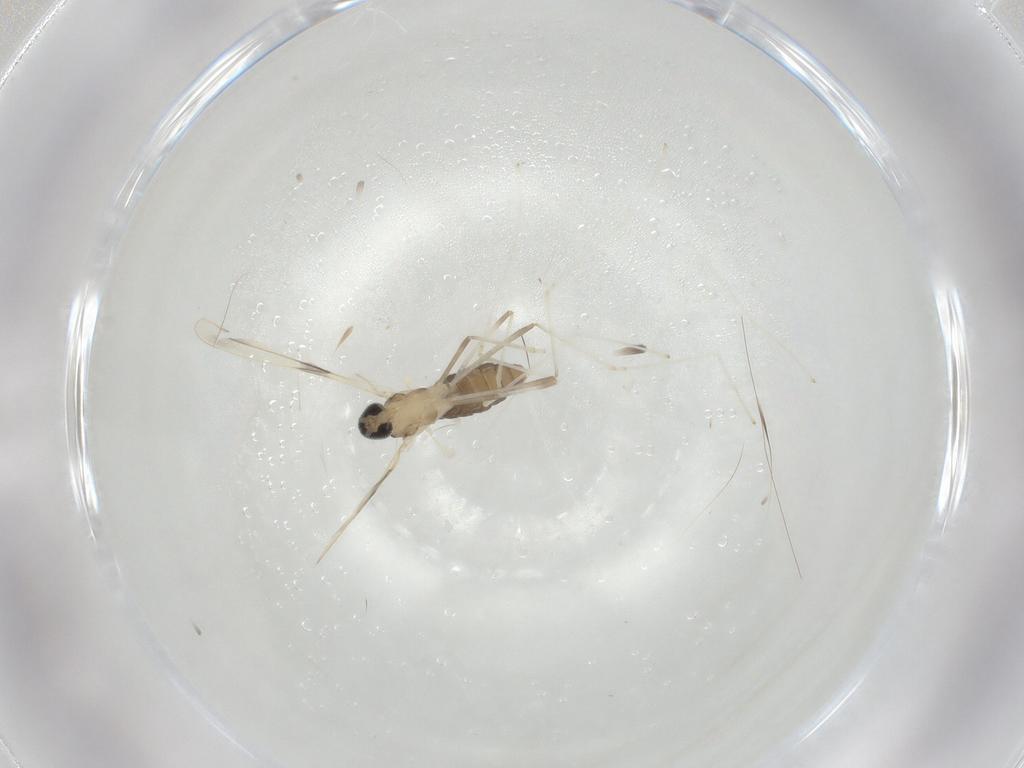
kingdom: Animalia
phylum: Arthropoda
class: Insecta
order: Diptera
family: Cecidomyiidae
